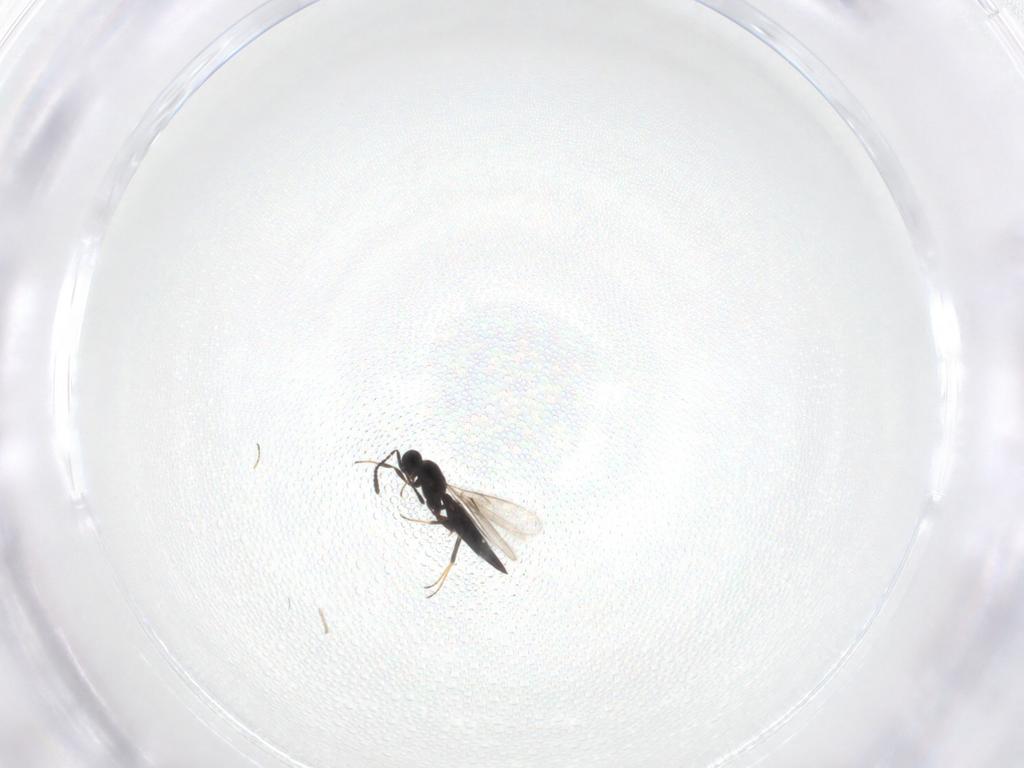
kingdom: Animalia
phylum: Arthropoda
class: Insecta
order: Hymenoptera
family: Scelionidae
